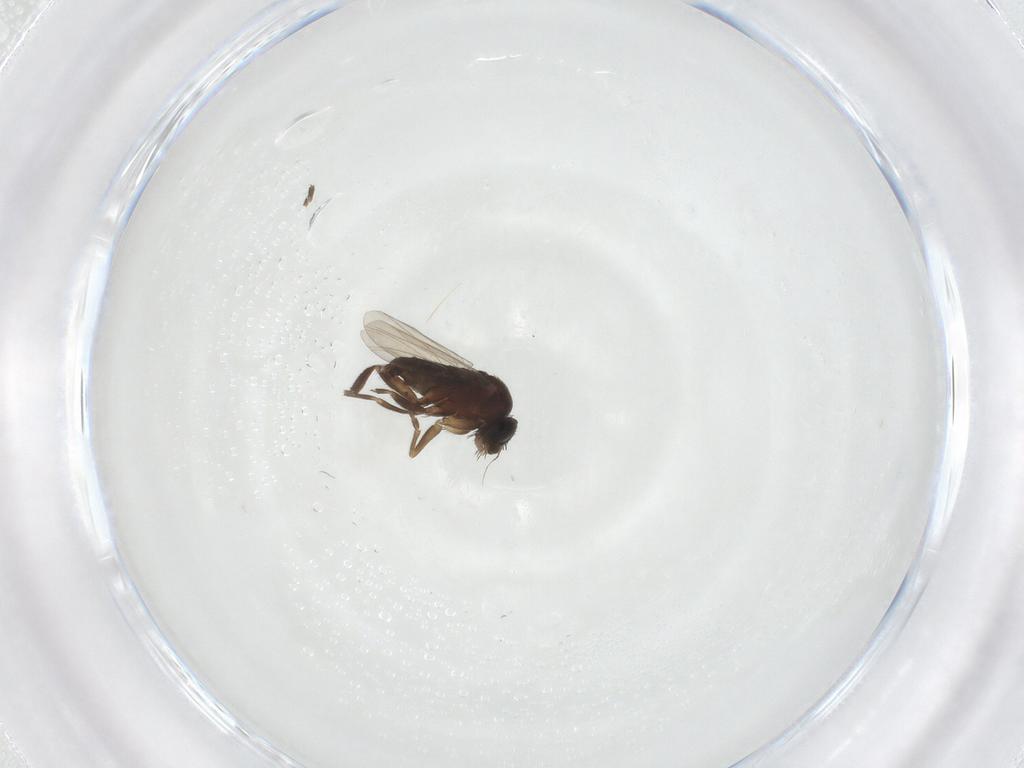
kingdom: Animalia
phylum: Arthropoda
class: Insecta
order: Diptera
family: Phoridae
